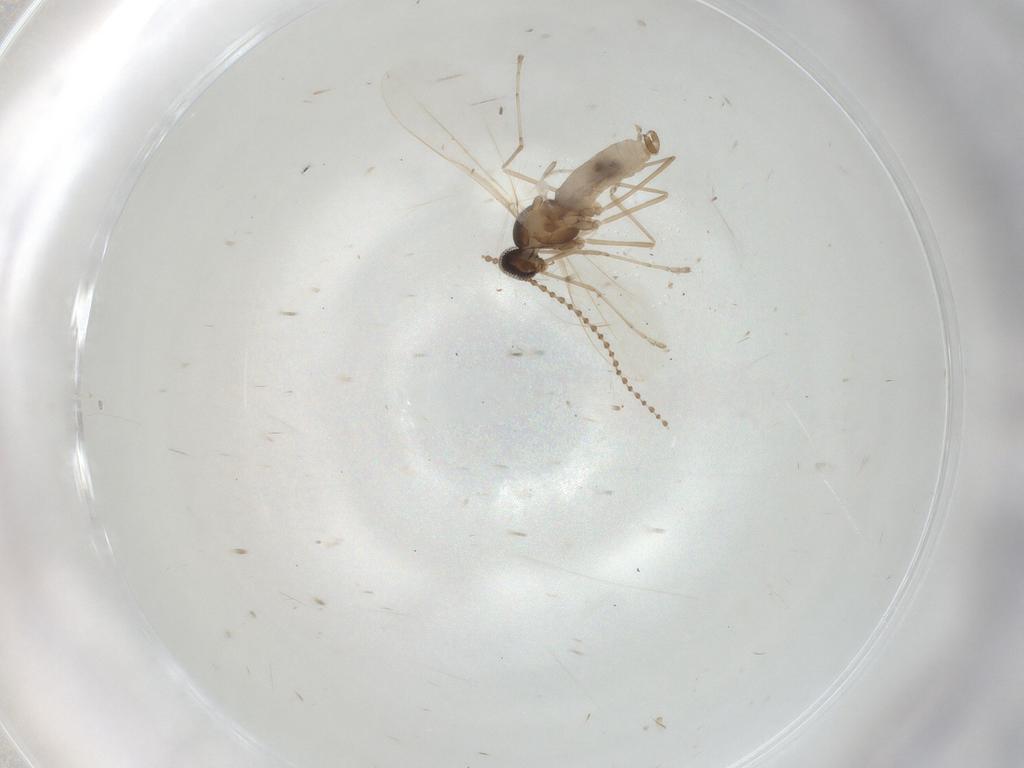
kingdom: Animalia
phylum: Arthropoda
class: Insecta
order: Diptera
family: Cecidomyiidae
